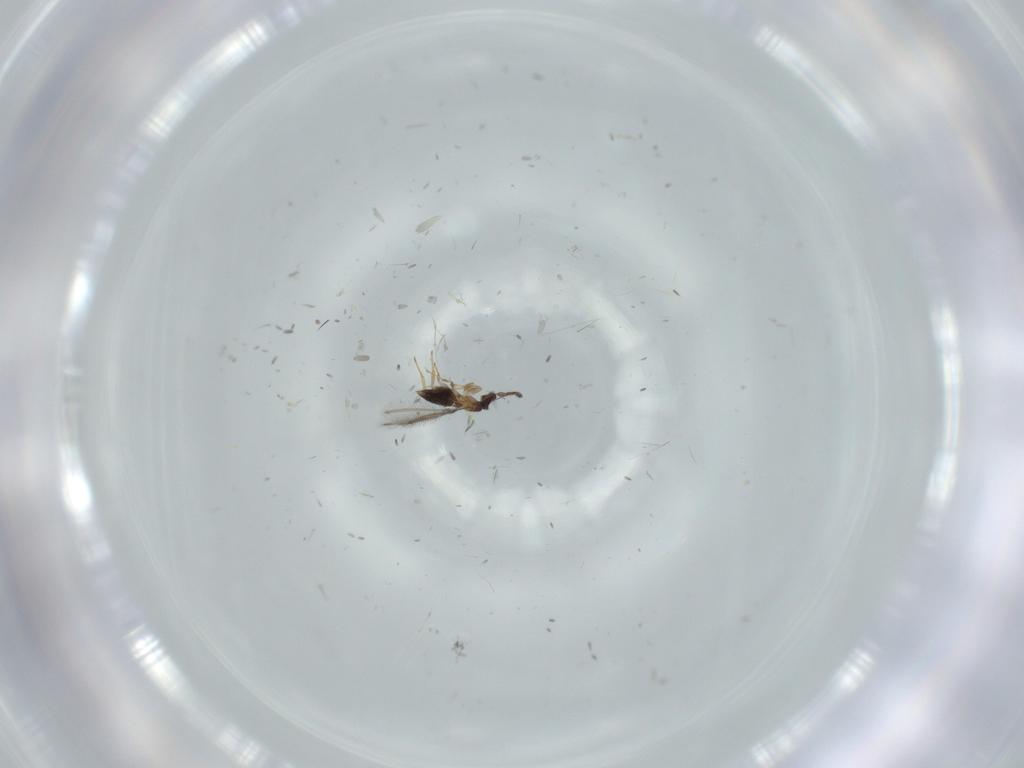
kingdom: Animalia
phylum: Arthropoda
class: Insecta
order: Hymenoptera
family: Mymaridae
